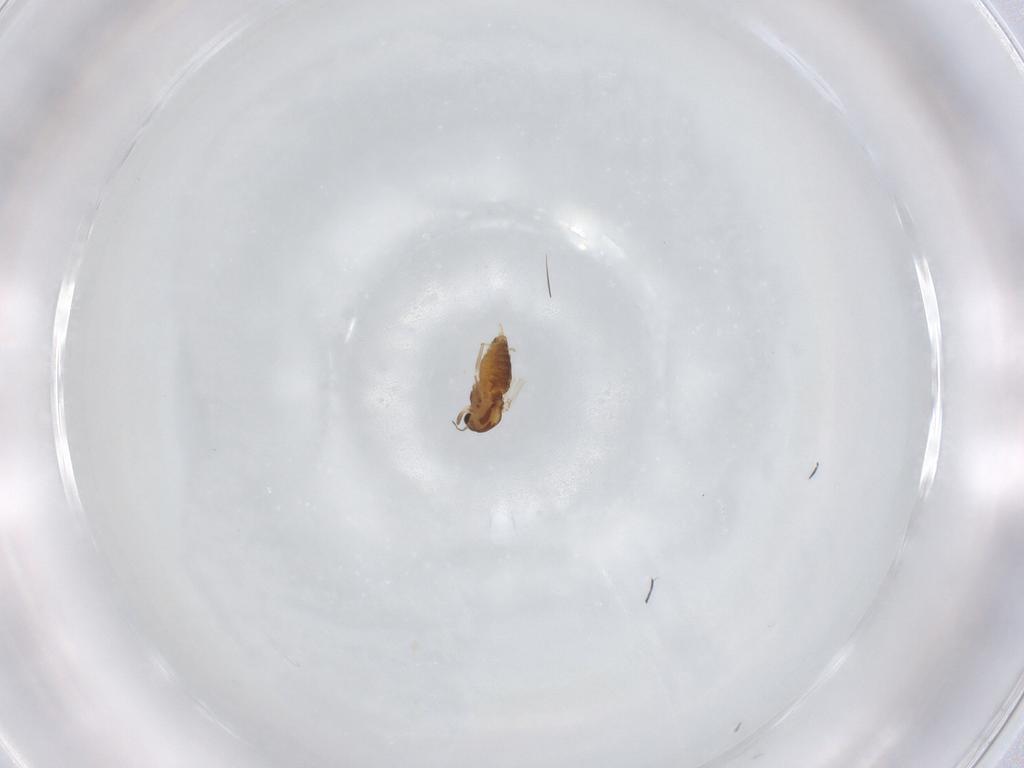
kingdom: Animalia
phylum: Arthropoda
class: Insecta
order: Diptera
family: Chironomidae
